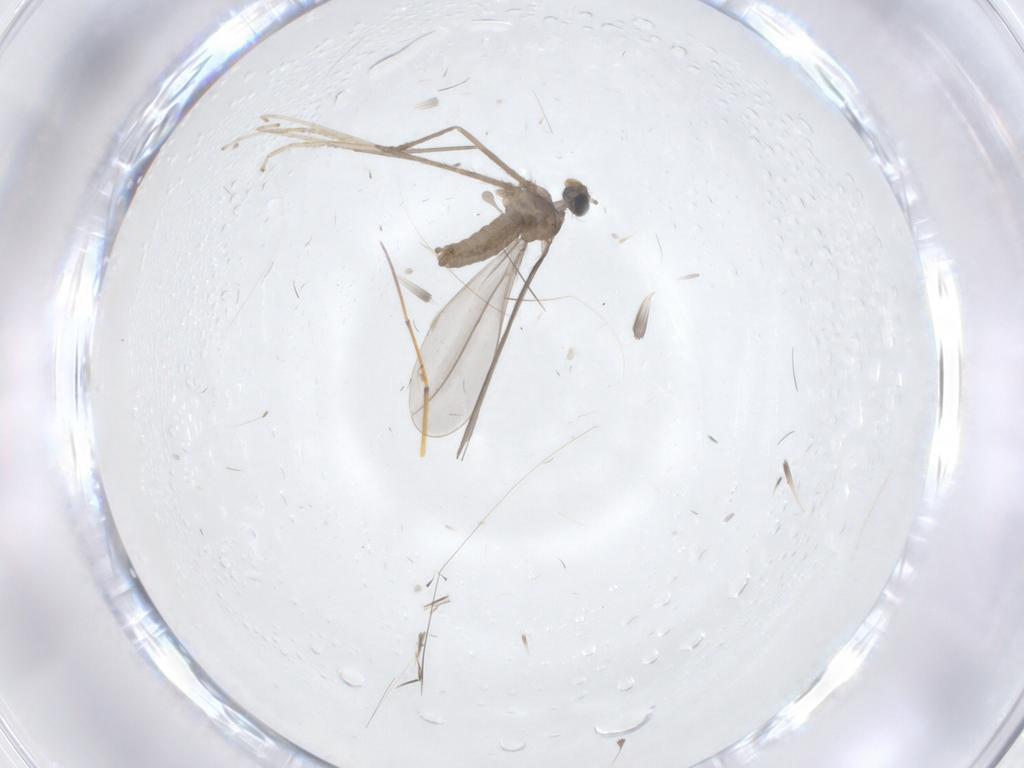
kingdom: Animalia
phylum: Arthropoda
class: Insecta
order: Diptera
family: Cecidomyiidae
